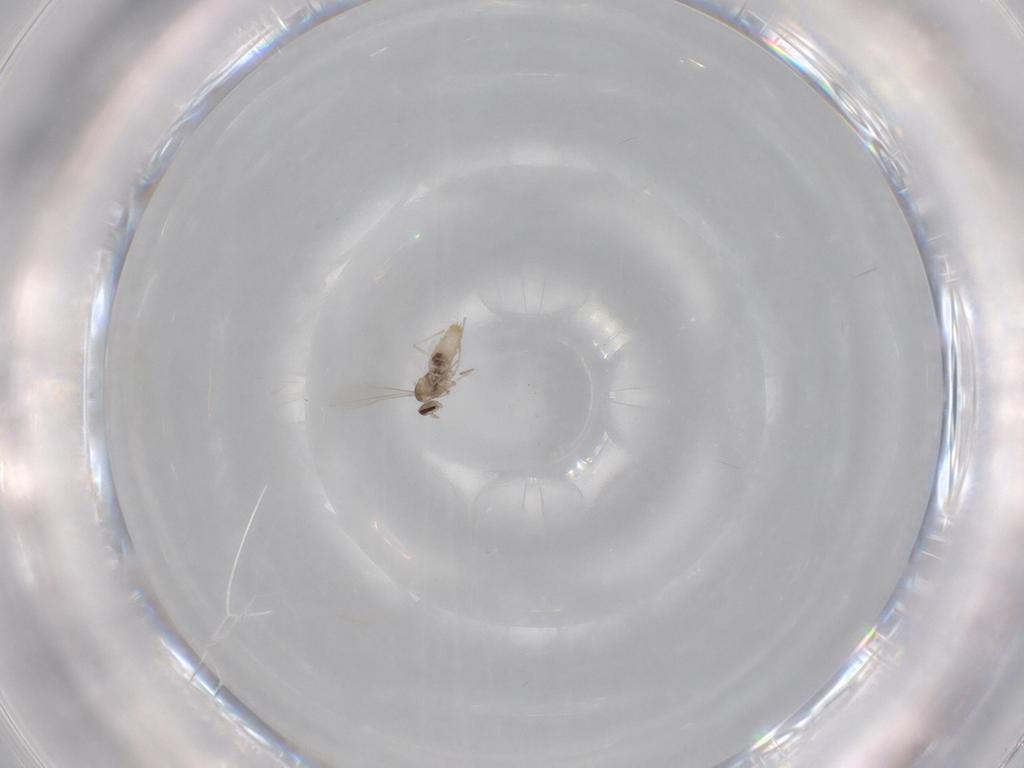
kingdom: Animalia
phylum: Arthropoda
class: Insecta
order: Diptera
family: Cecidomyiidae
